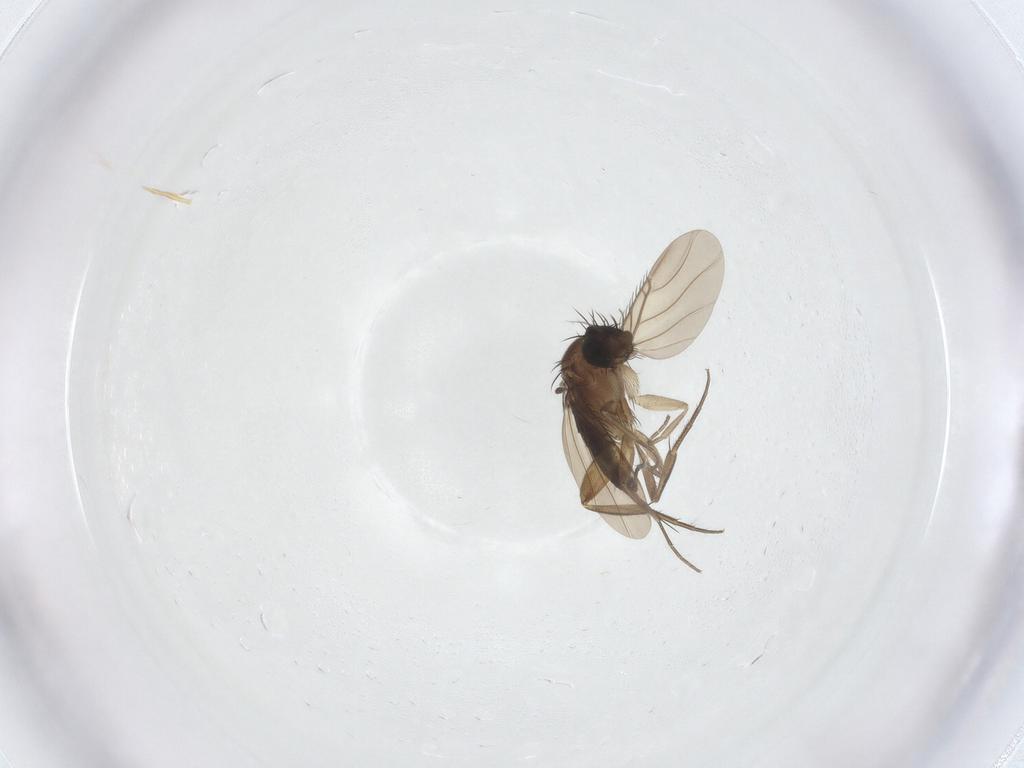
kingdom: Animalia
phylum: Arthropoda
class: Insecta
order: Diptera
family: Phoridae
